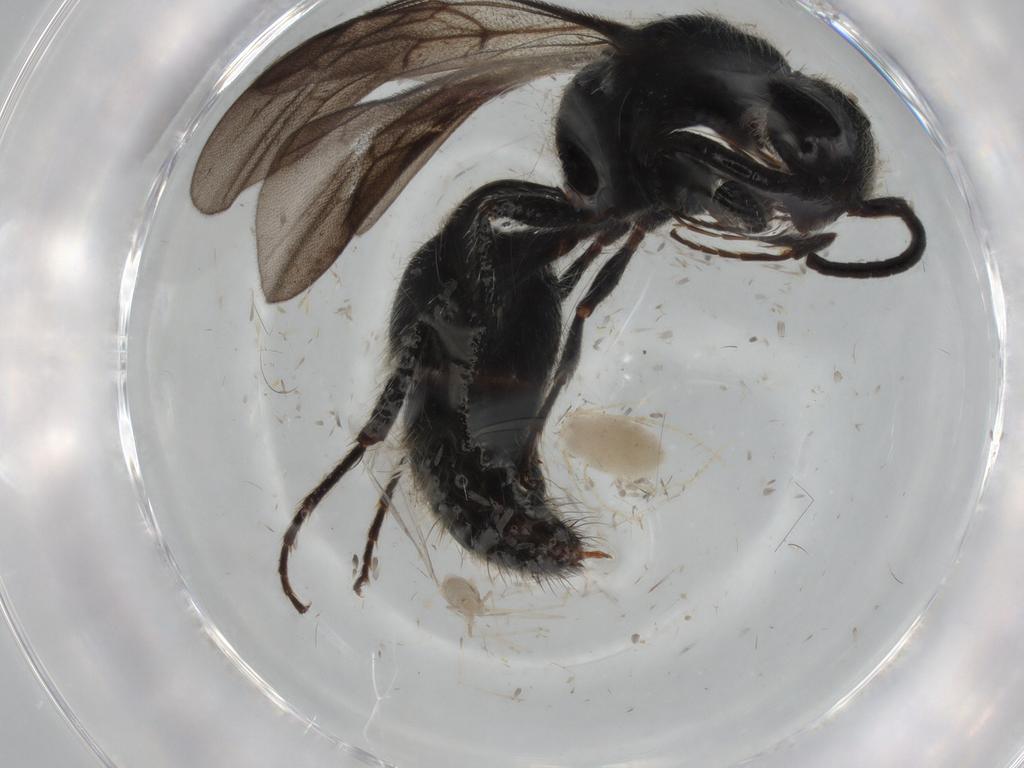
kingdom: Animalia
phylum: Arthropoda
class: Insecta
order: Diptera
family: Cecidomyiidae
